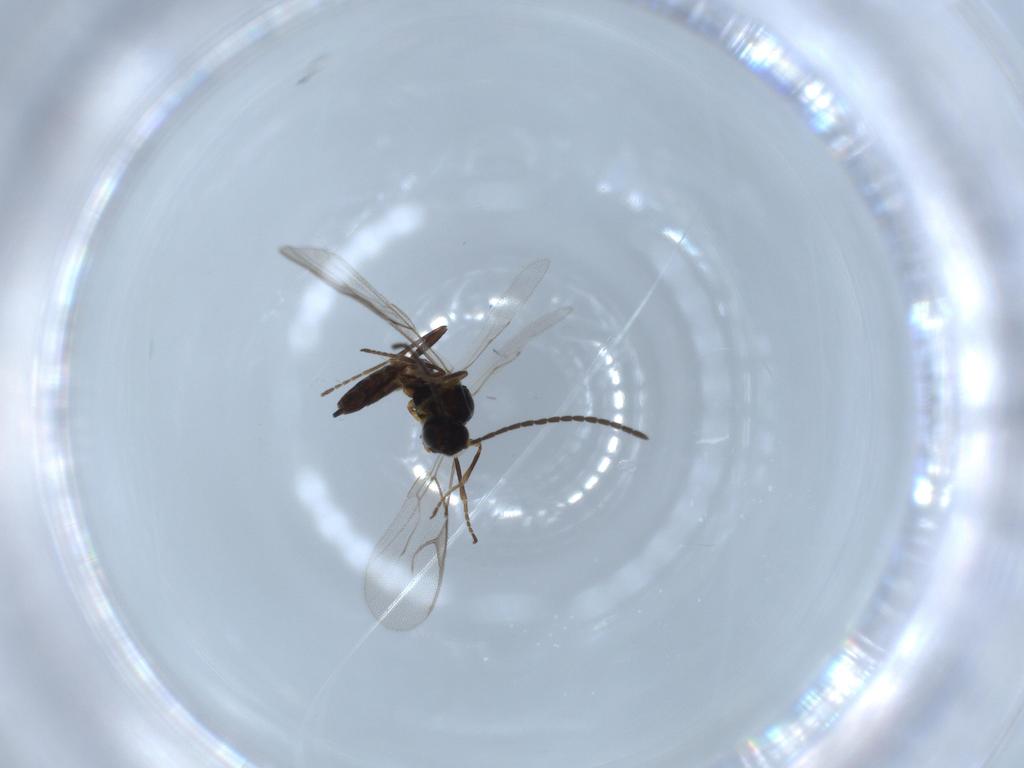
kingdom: Animalia
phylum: Arthropoda
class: Insecta
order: Hymenoptera
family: Braconidae
